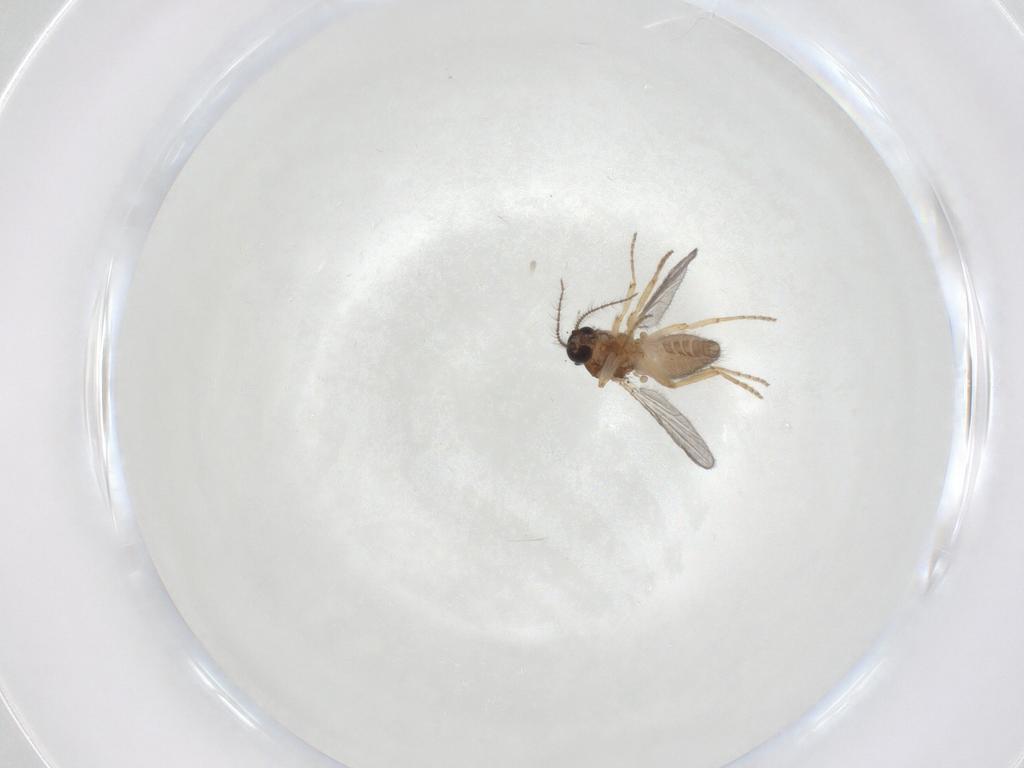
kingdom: Animalia
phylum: Arthropoda
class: Insecta
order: Diptera
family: Ceratopogonidae
